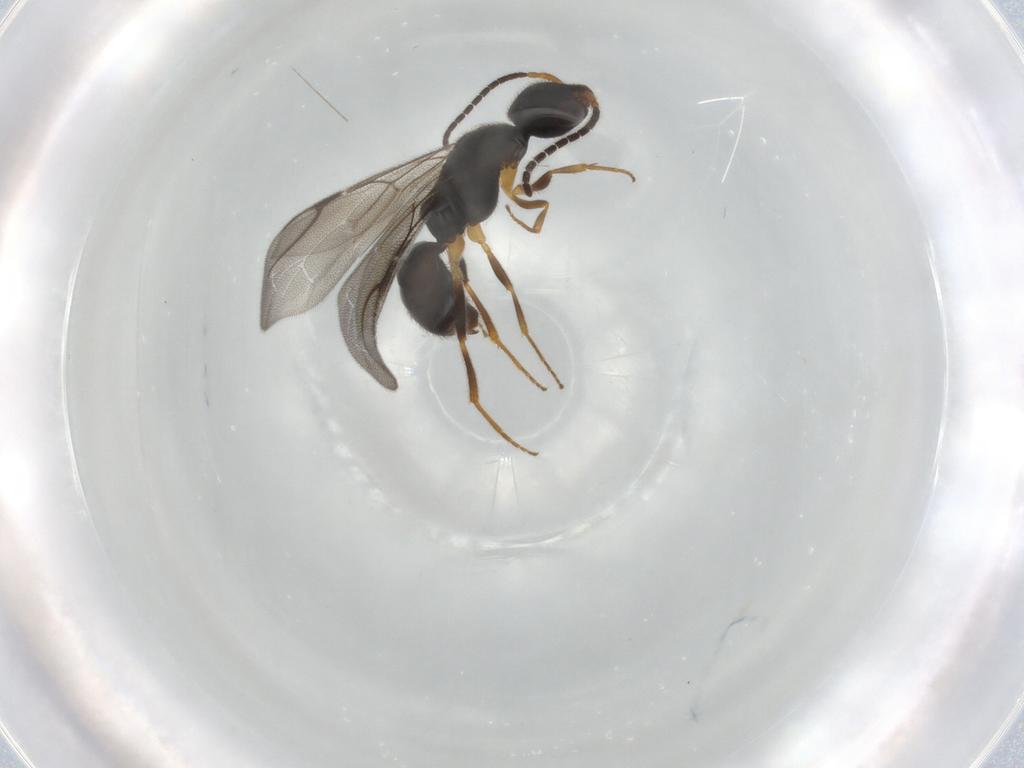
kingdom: Animalia
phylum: Arthropoda
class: Insecta
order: Hymenoptera
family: Bethylidae
